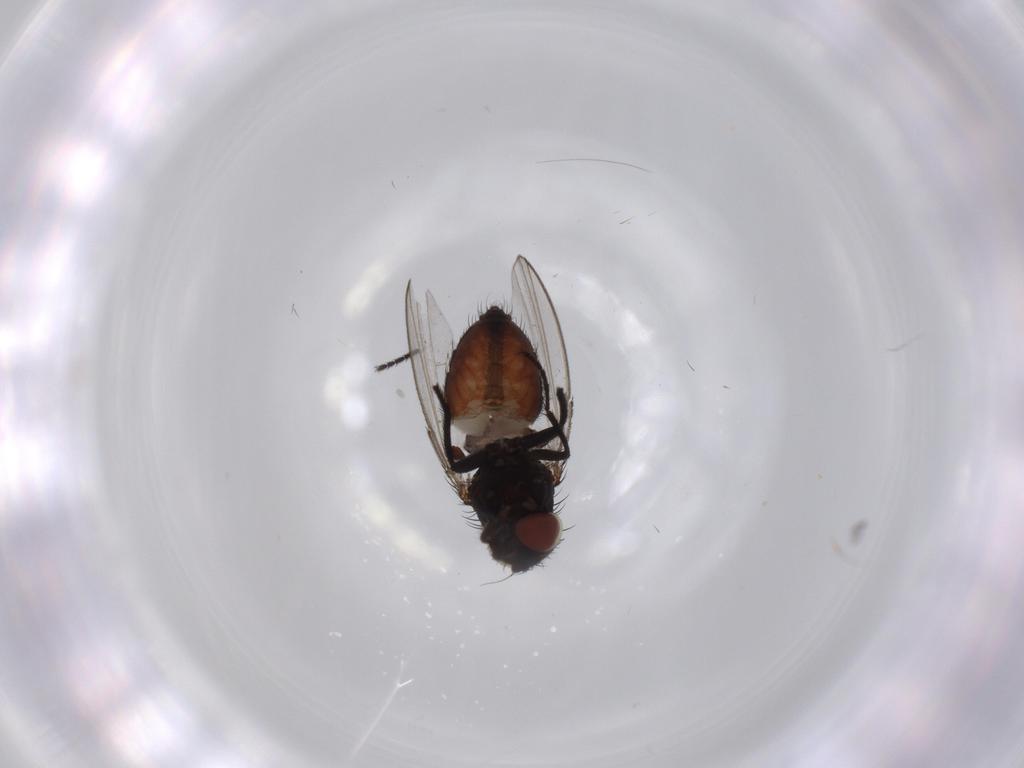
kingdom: Animalia
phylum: Arthropoda
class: Insecta
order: Diptera
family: Milichiidae
